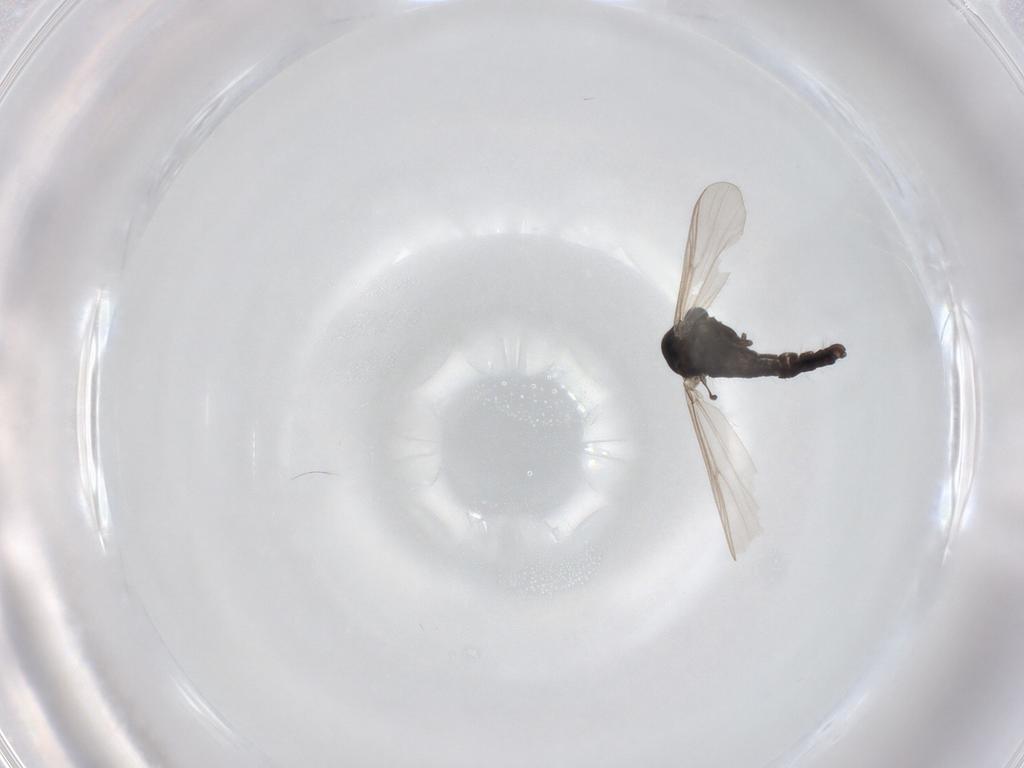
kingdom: Animalia
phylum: Arthropoda
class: Insecta
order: Diptera
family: Chironomidae
